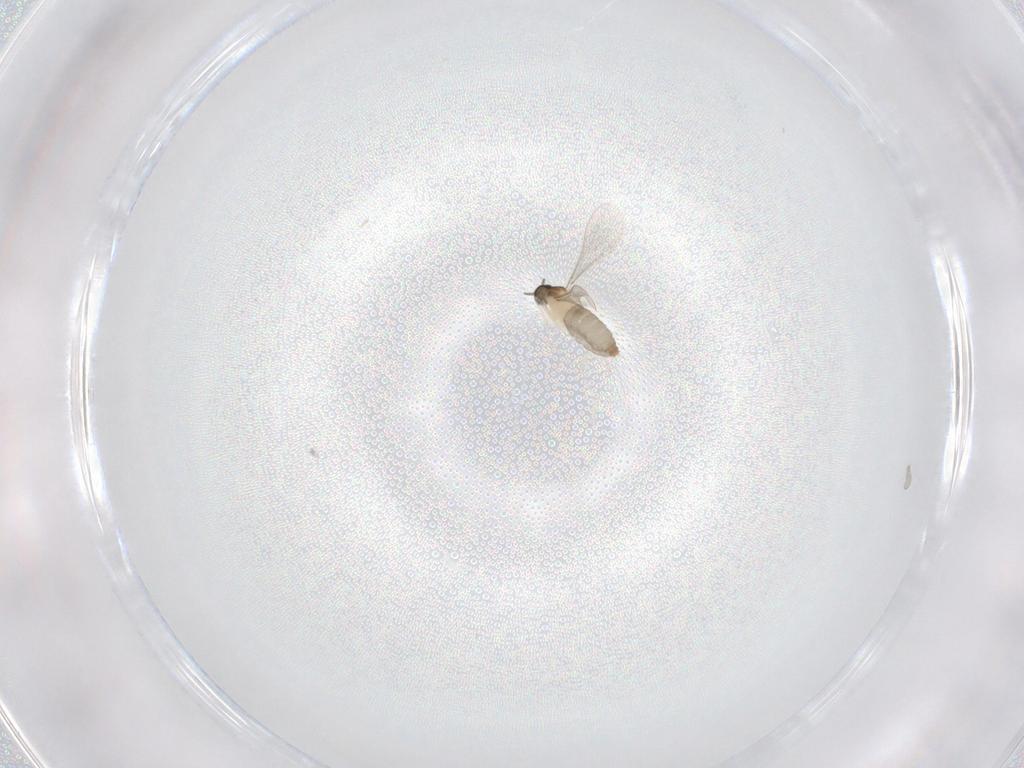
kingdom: Animalia
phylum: Arthropoda
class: Insecta
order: Diptera
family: Cecidomyiidae
